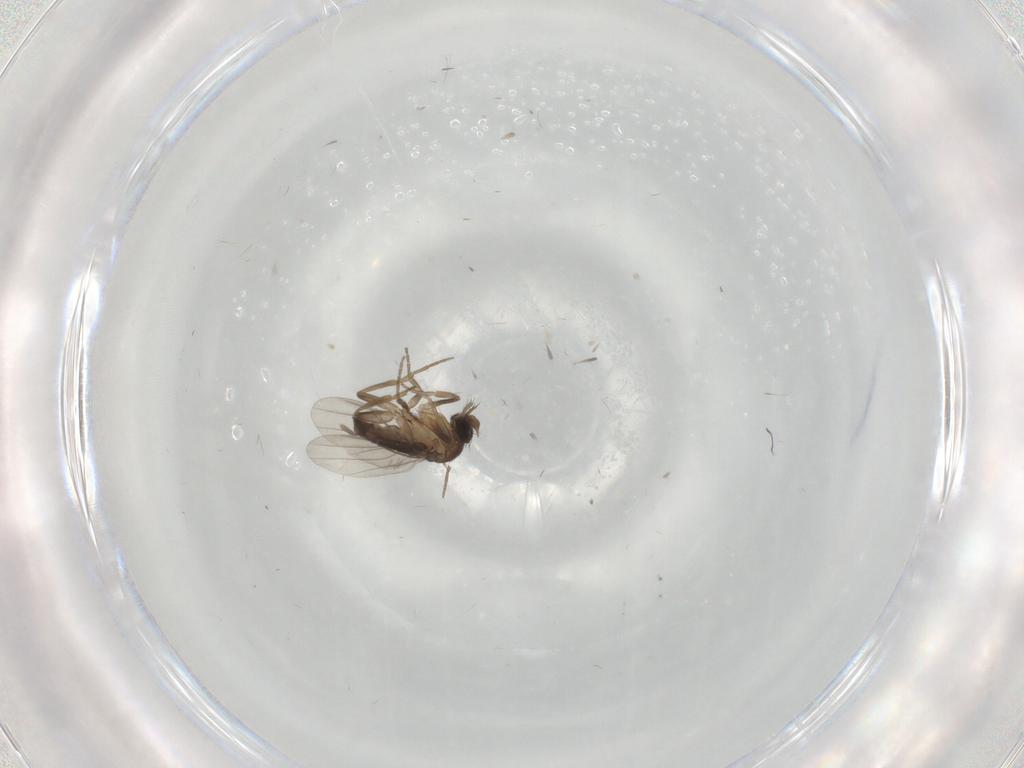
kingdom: Animalia
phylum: Arthropoda
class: Insecta
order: Diptera
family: Phoridae
